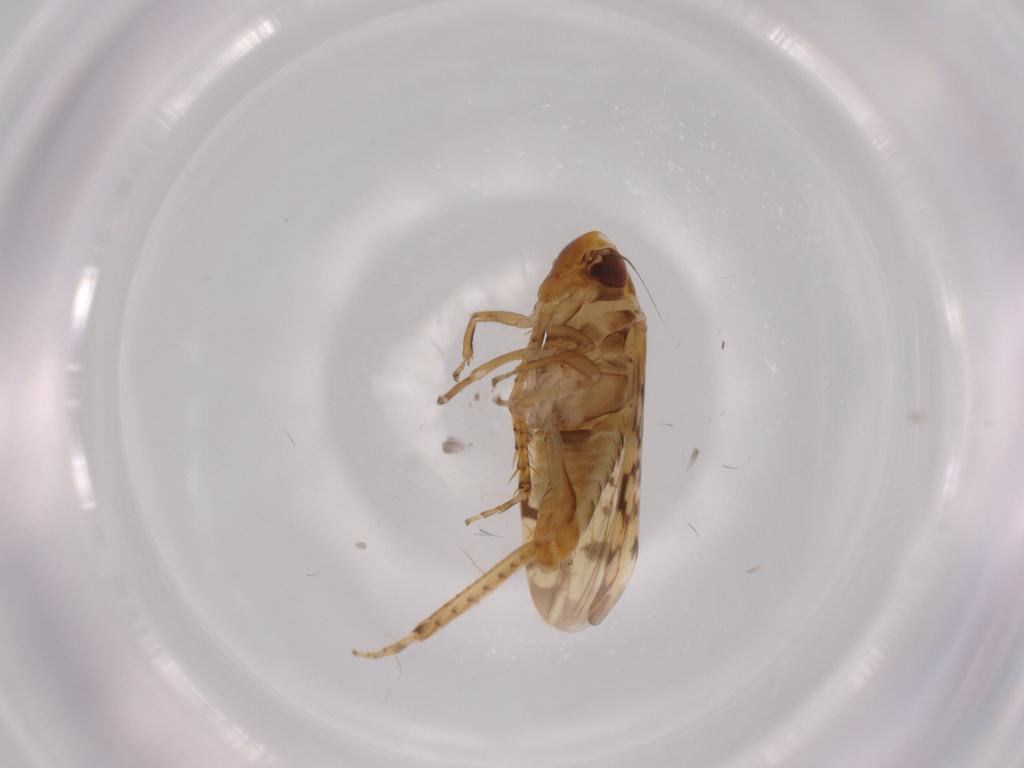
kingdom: Animalia
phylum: Arthropoda
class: Insecta
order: Hemiptera
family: Cicadellidae
